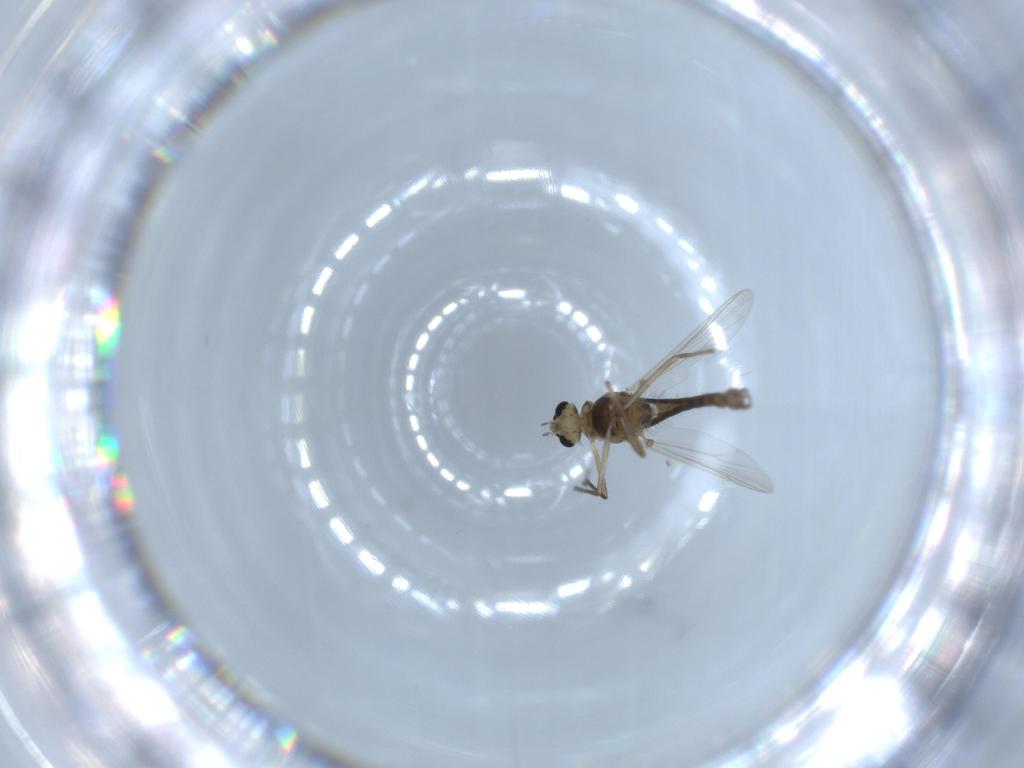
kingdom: Animalia
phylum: Arthropoda
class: Insecta
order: Diptera
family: Chironomidae
